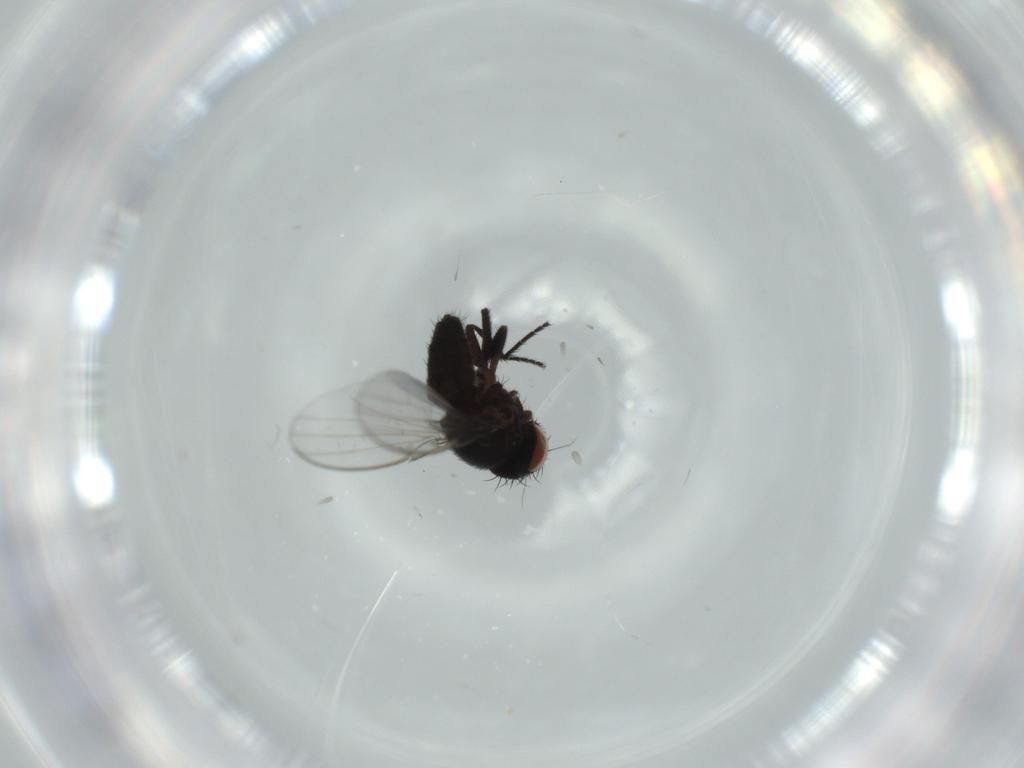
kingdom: Animalia
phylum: Arthropoda
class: Insecta
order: Diptera
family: Milichiidae
